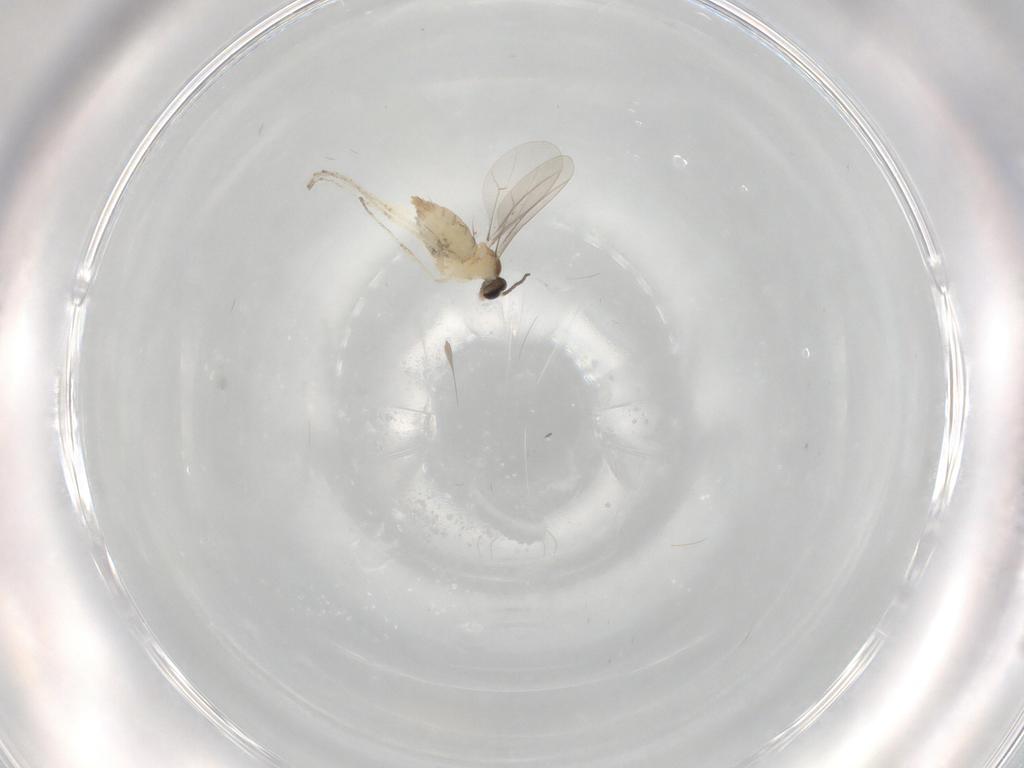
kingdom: Animalia
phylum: Arthropoda
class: Insecta
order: Diptera
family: Cecidomyiidae
